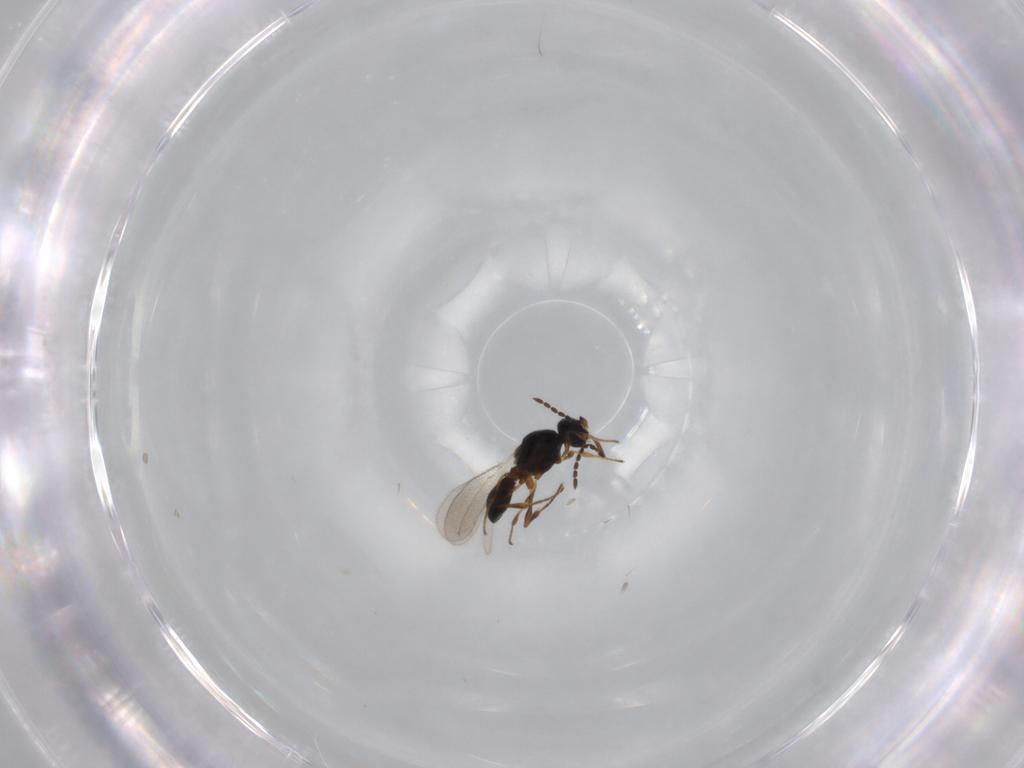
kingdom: Animalia
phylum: Arthropoda
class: Insecta
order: Hymenoptera
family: Platygastridae
